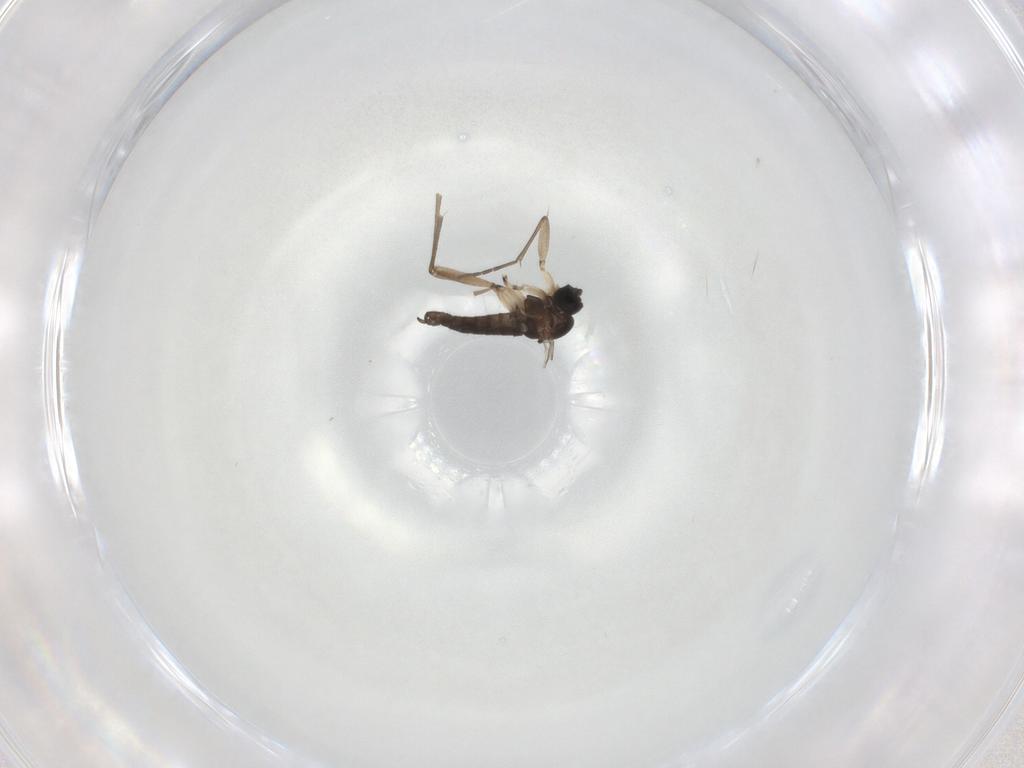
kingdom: Animalia
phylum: Arthropoda
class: Insecta
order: Diptera
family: Sciaridae
